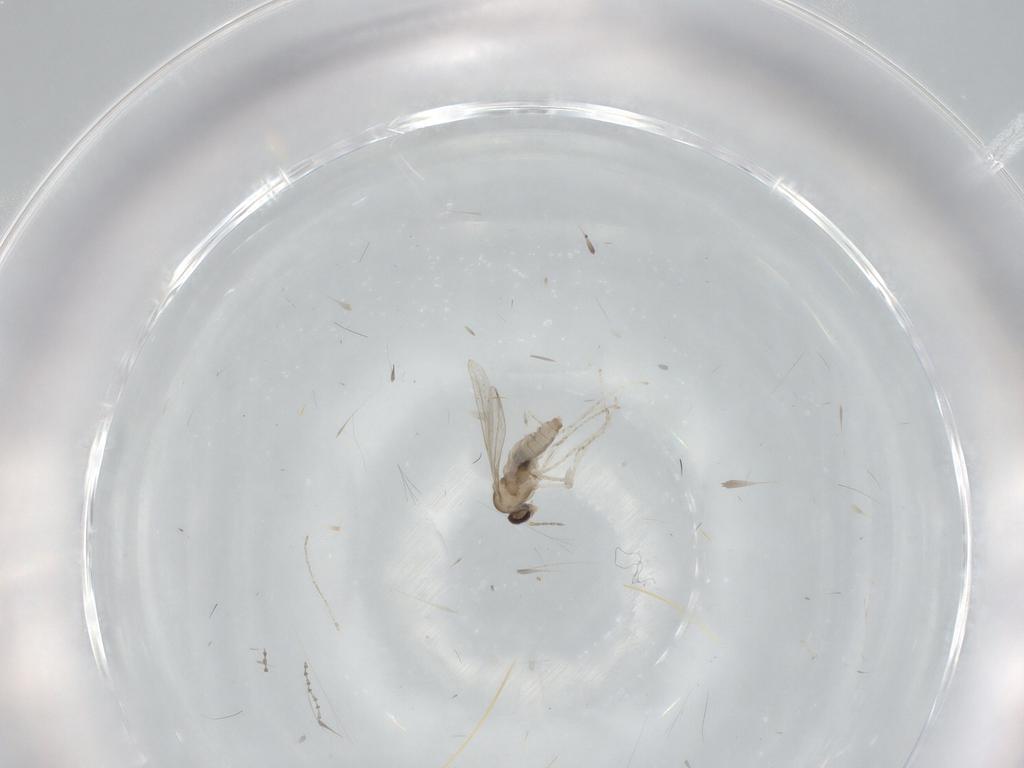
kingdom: Animalia
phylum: Arthropoda
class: Insecta
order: Diptera
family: Cecidomyiidae
